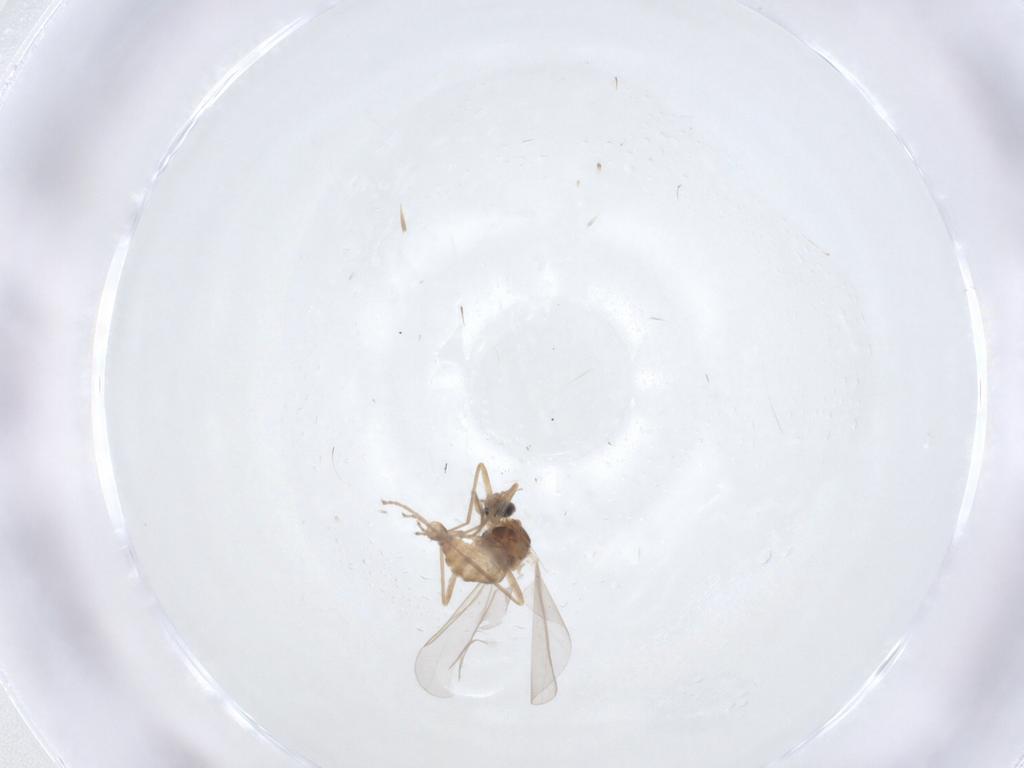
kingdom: Animalia
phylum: Arthropoda
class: Insecta
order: Diptera
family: Cecidomyiidae
